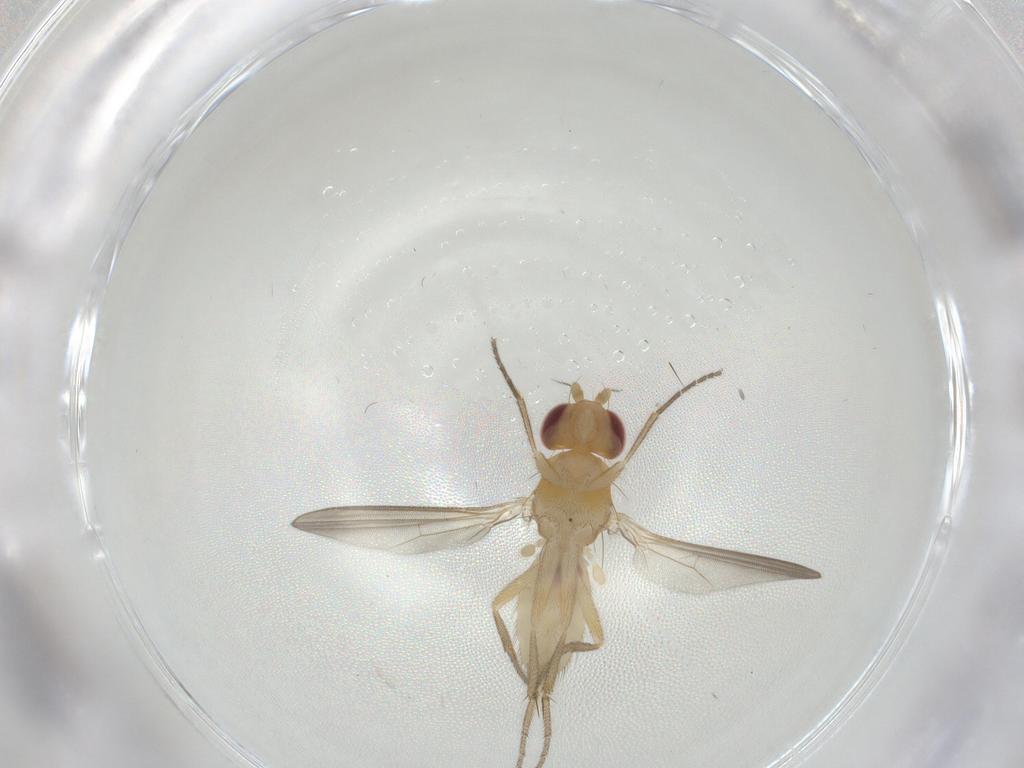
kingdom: Animalia
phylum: Arthropoda
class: Insecta
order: Diptera
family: Clusiidae
